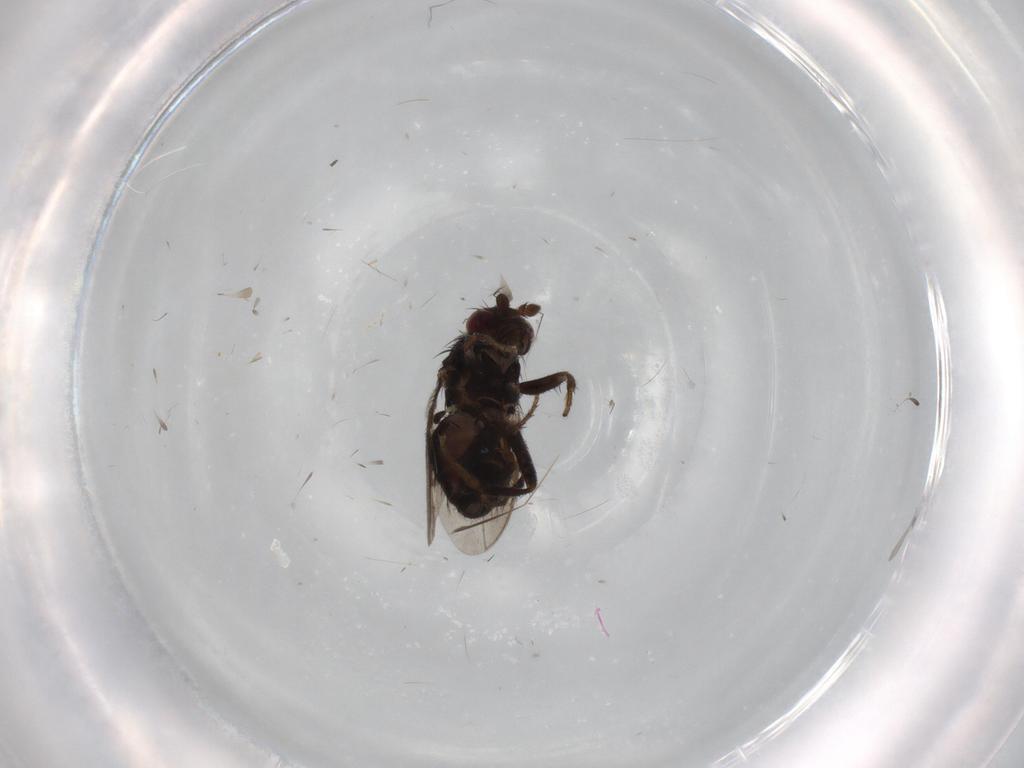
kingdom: Animalia
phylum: Arthropoda
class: Insecta
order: Diptera
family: Sphaeroceridae
